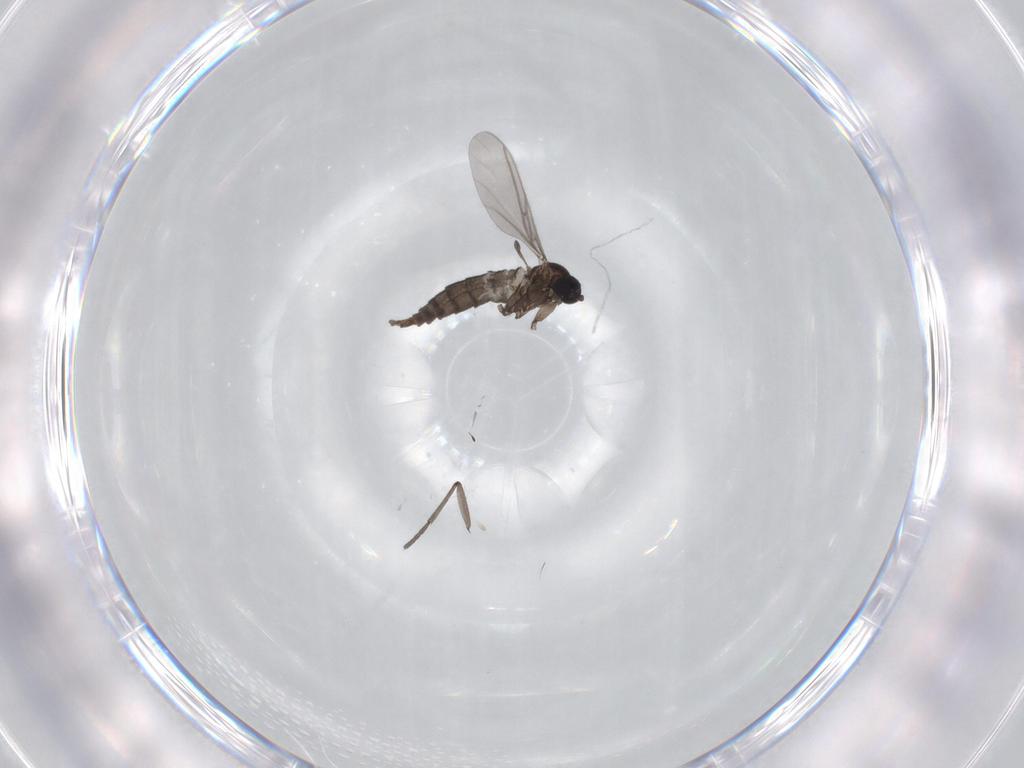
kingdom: Animalia
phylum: Arthropoda
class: Insecta
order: Diptera
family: Sciaridae
